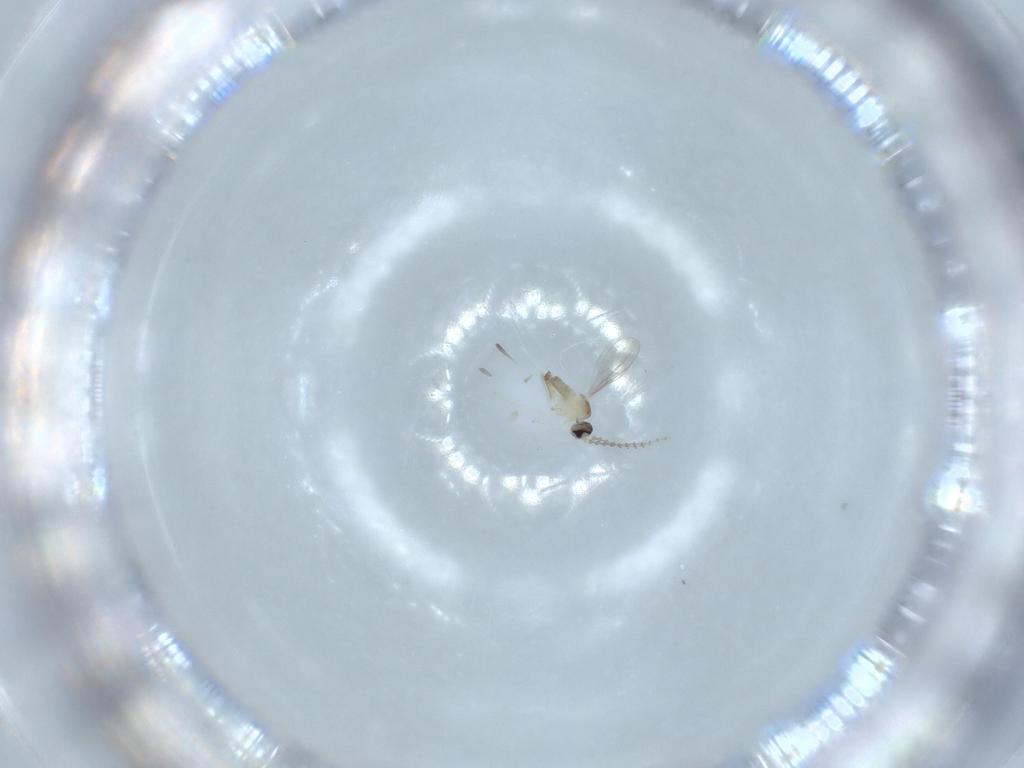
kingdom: Animalia
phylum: Arthropoda
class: Insecta
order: Diptera
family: Cecidomyiidae
